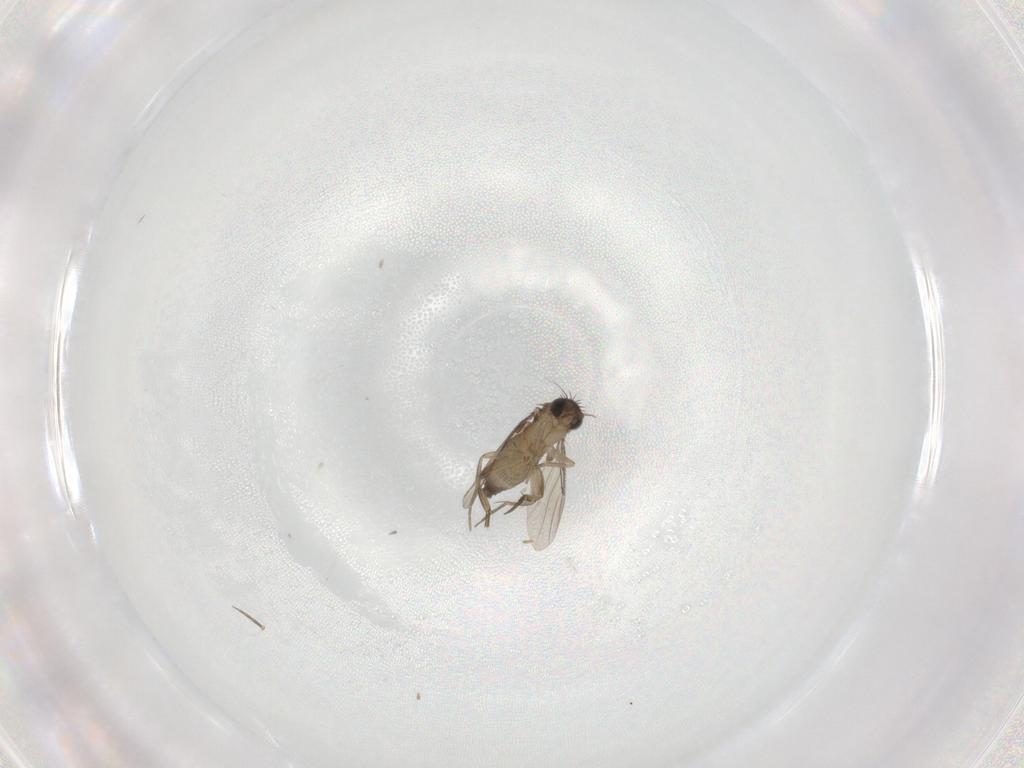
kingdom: Animalia
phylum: Arthropoda
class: Insecta
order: Diptera
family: Phoridae
